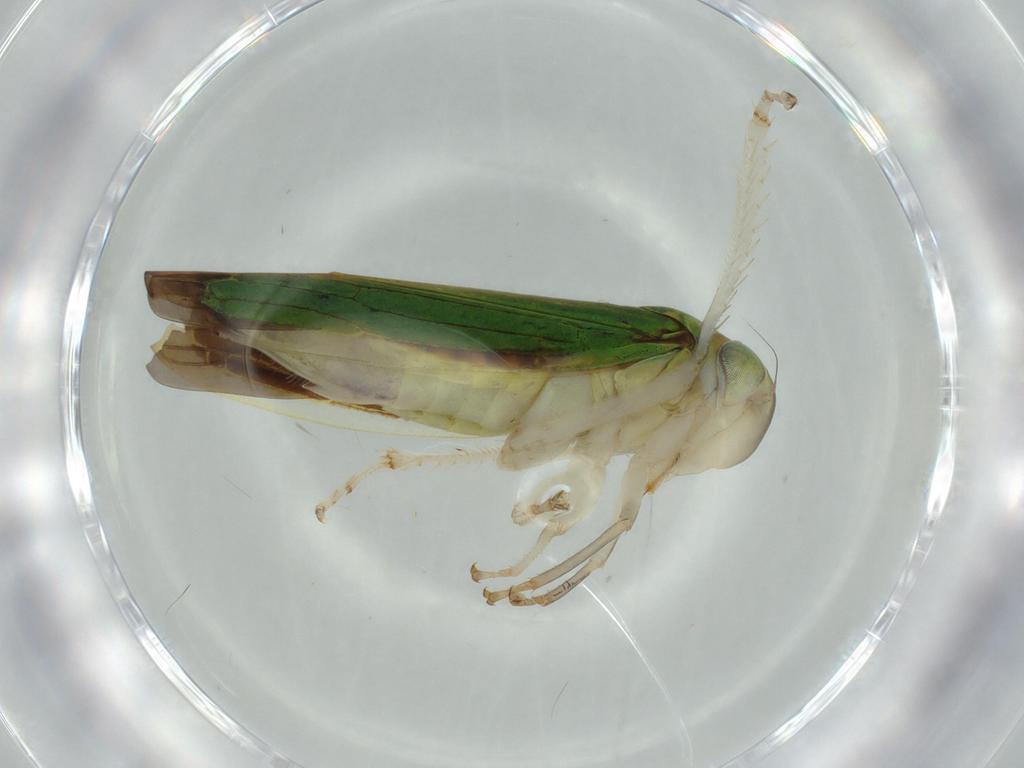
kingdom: Animalia
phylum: Arthropoda
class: Insecta
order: Hemiptera
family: Cicadellidae
